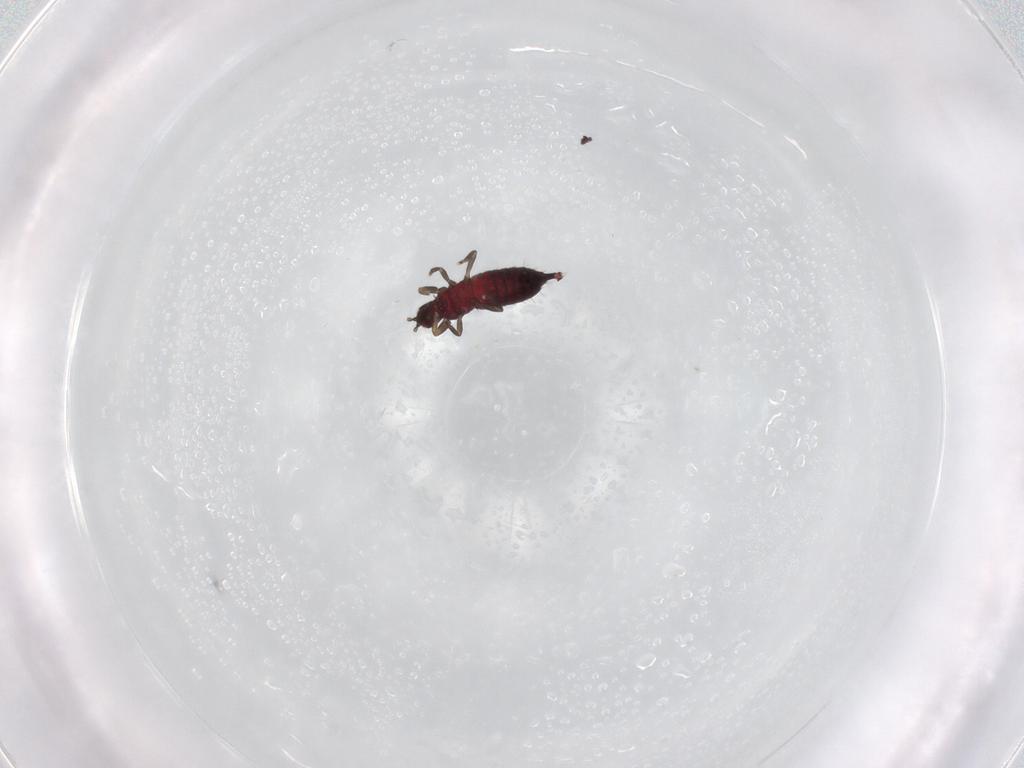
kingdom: Animalia
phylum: Arthropoda
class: Insecta
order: Thysanoptera
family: Phlaeothripidae
